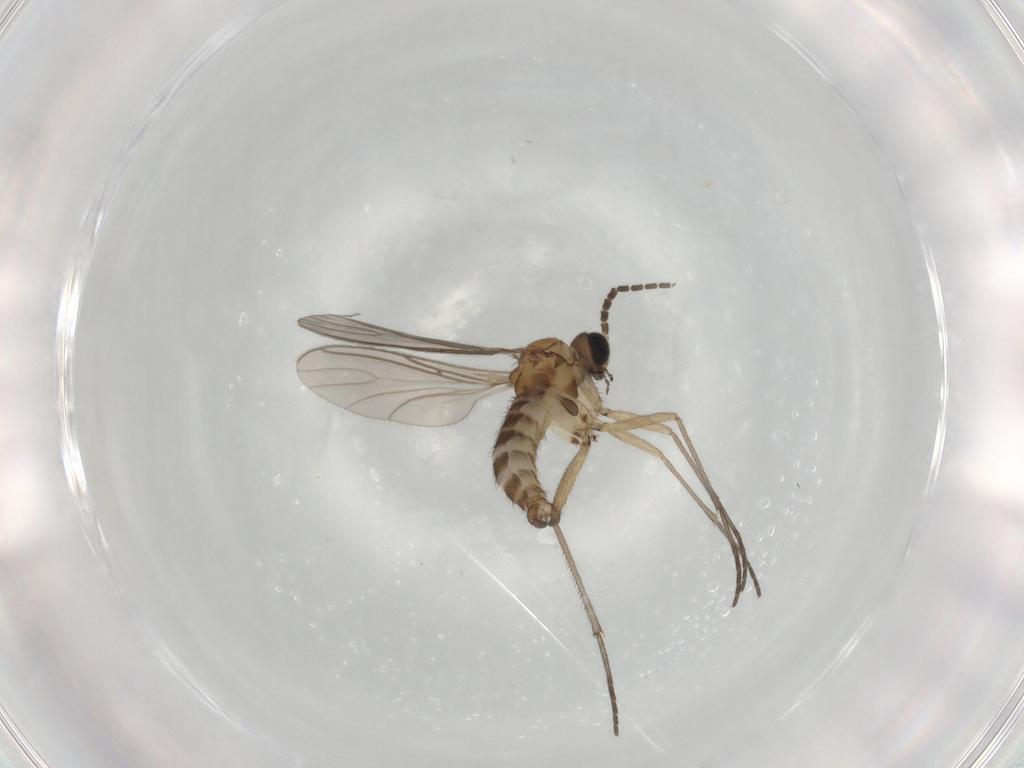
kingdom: Animalia
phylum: Arthropoda
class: Insecta
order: Diptera
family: Sciaridae
